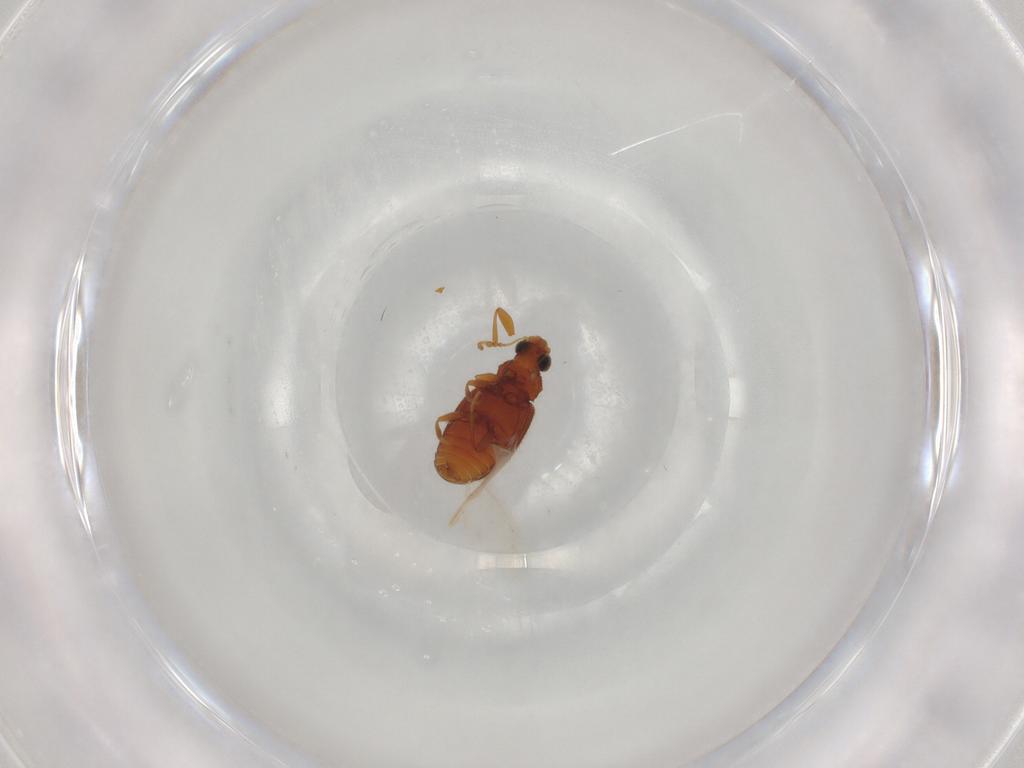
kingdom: Animalia
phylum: Arthropoda
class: Insecta
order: Coleoptera
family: Latridiidae
